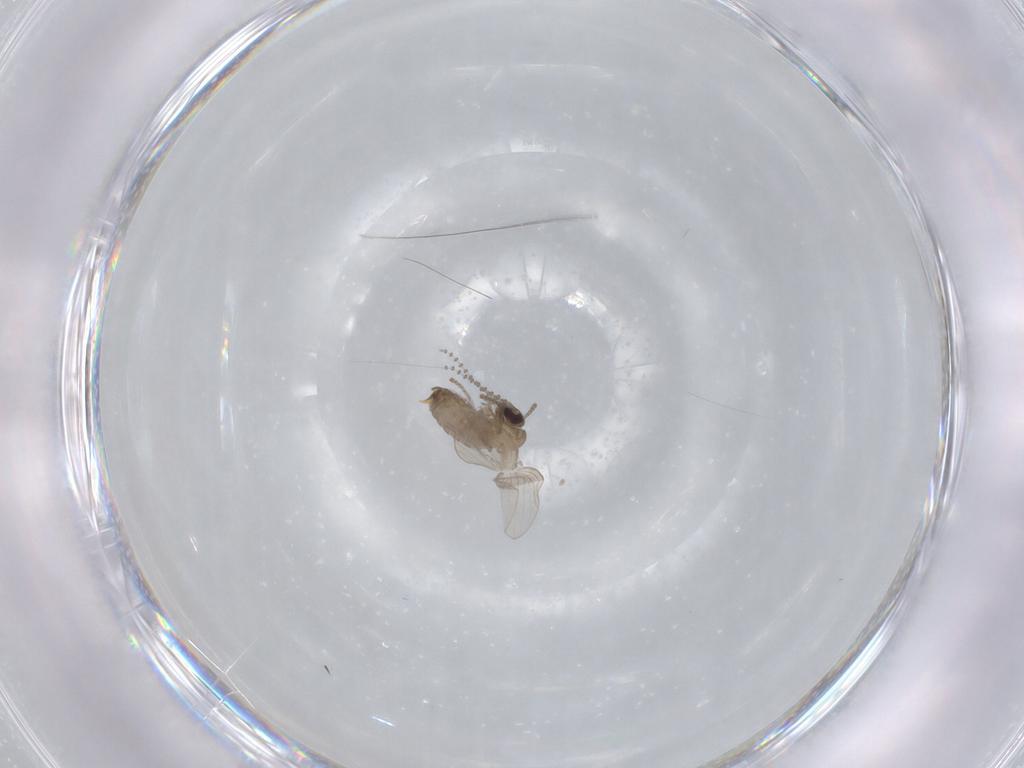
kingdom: Animalia
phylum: Arthropoda
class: Insecta
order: Diptera
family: Psychodidae
